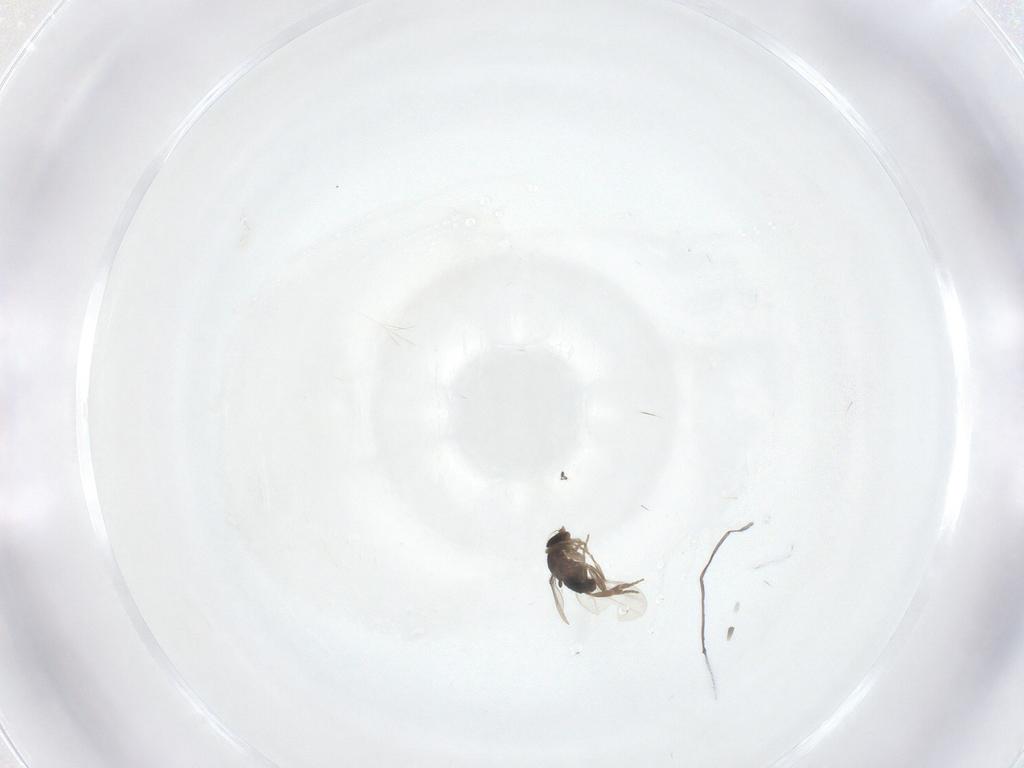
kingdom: Animalia
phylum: Arthropoda
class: Insecta
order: Diptera
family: Phoridae
